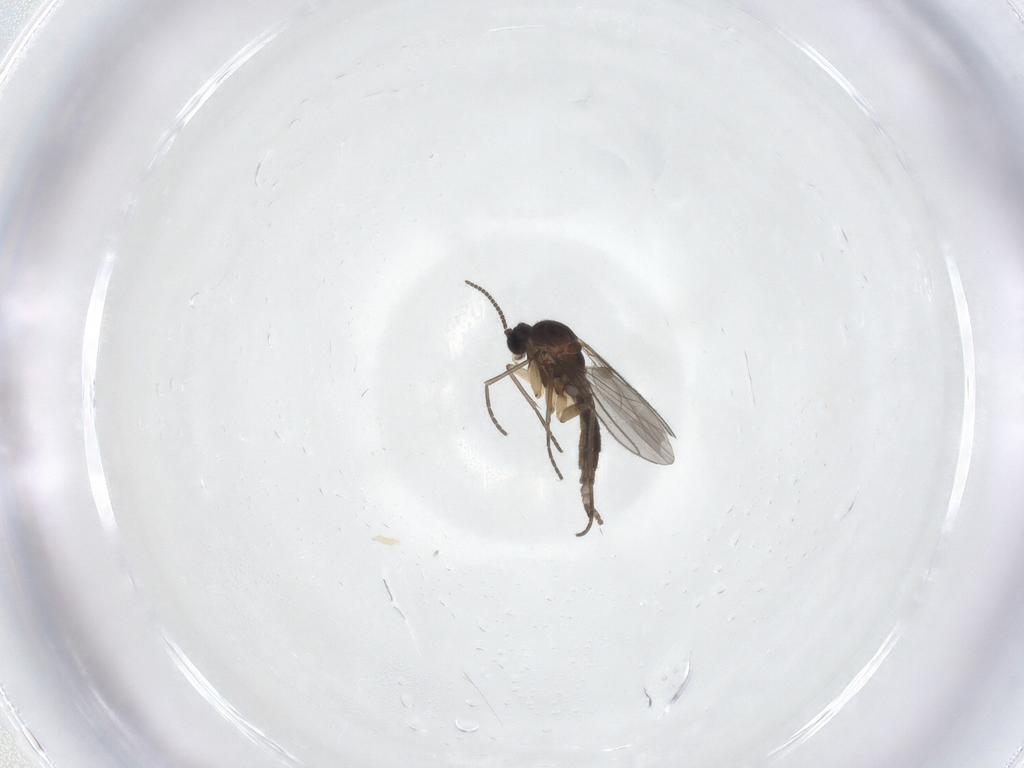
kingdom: Animalia
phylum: Arthropoda
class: Insecta
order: Diptera
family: Sciaridae
